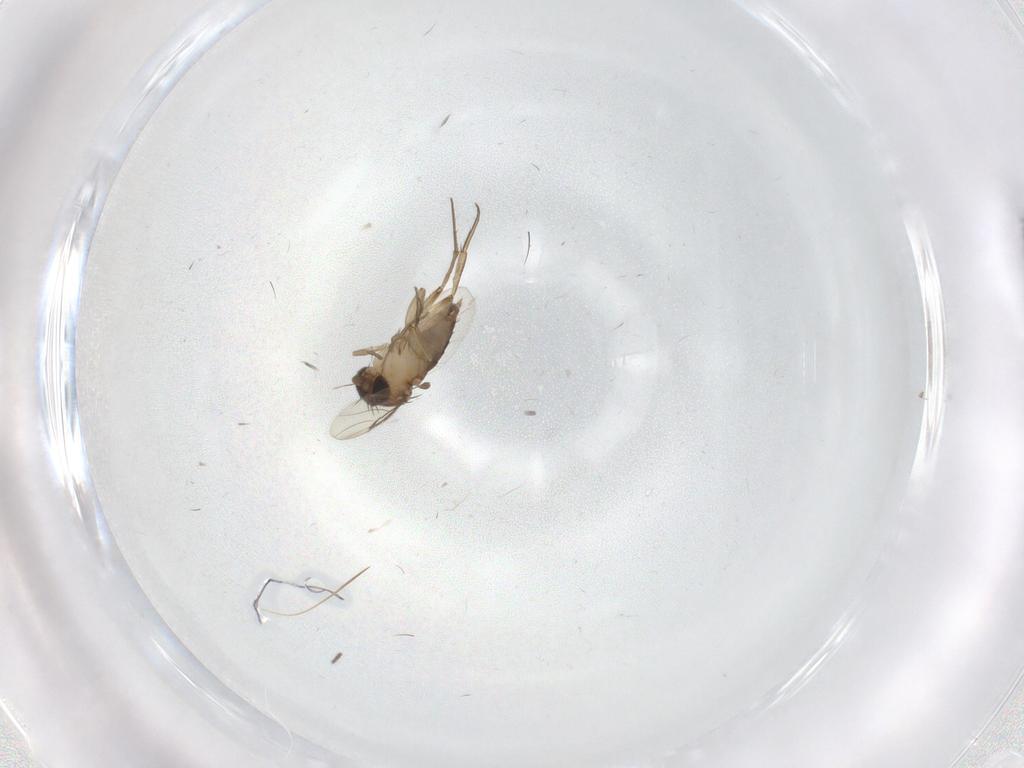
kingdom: Animalia
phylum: Arthropoda
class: Insecta
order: Diptera
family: Phoridae
